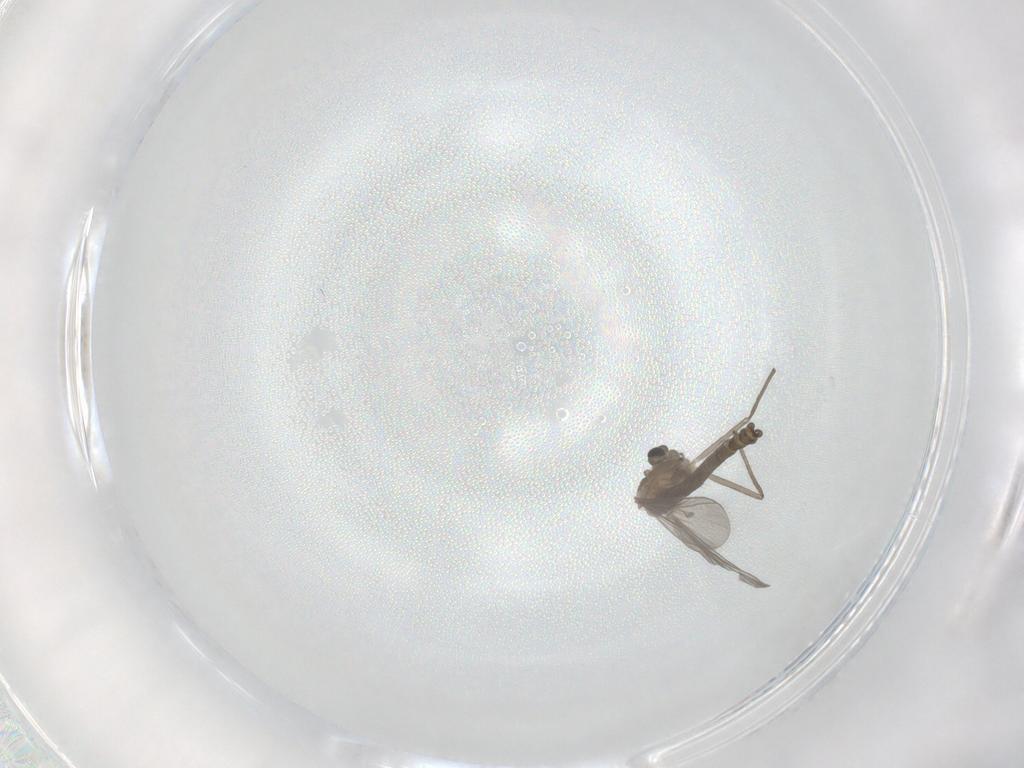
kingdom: Animalia
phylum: Arthropoda
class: Insecta
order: Diptera
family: Chironomidae
